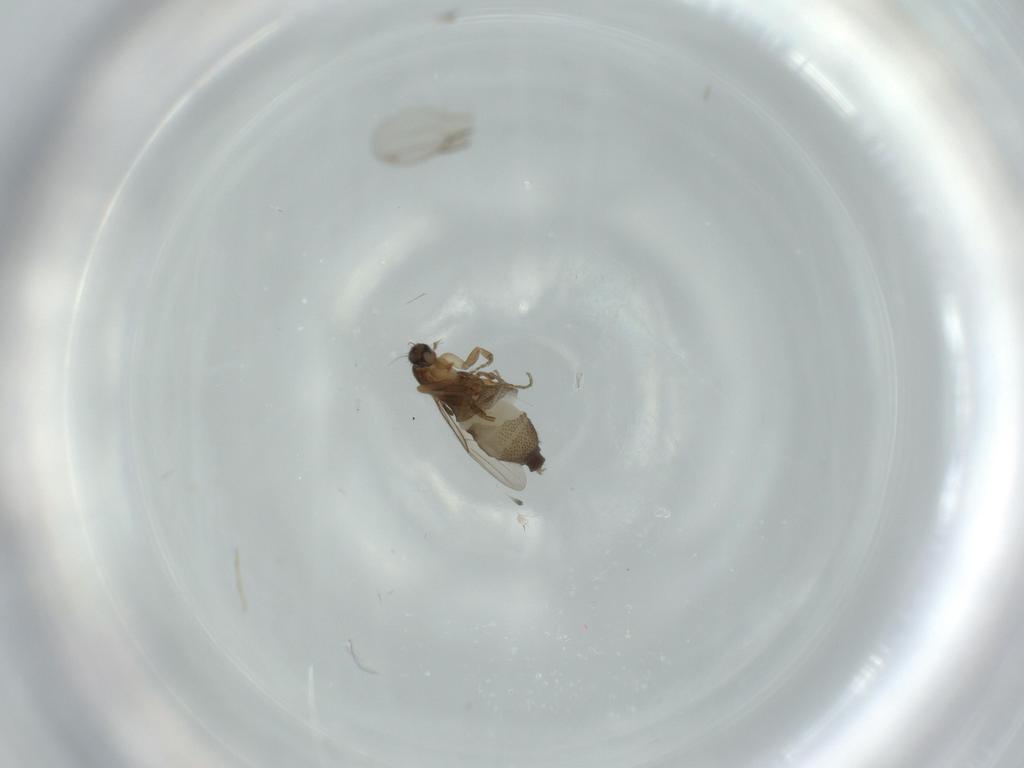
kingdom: Animalia
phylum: Arthropoda
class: Insecta
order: Diptera
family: Phoridae
